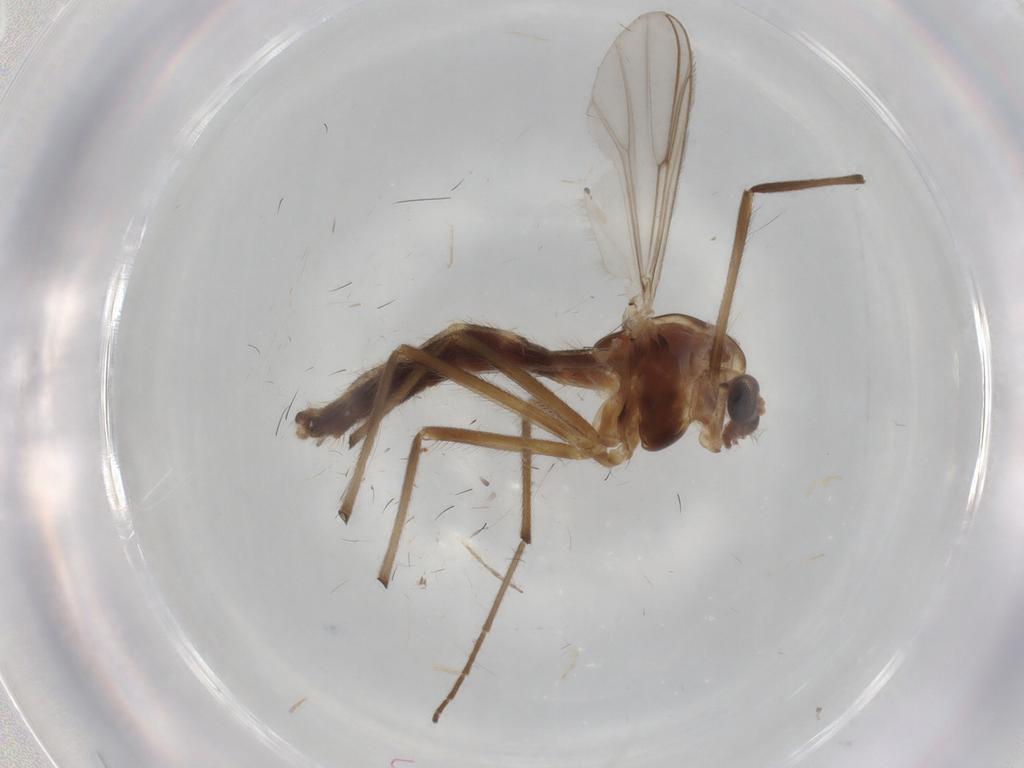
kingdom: Animalia
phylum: Arthropoda
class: Insecta
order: Diptera
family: Chironomidae
